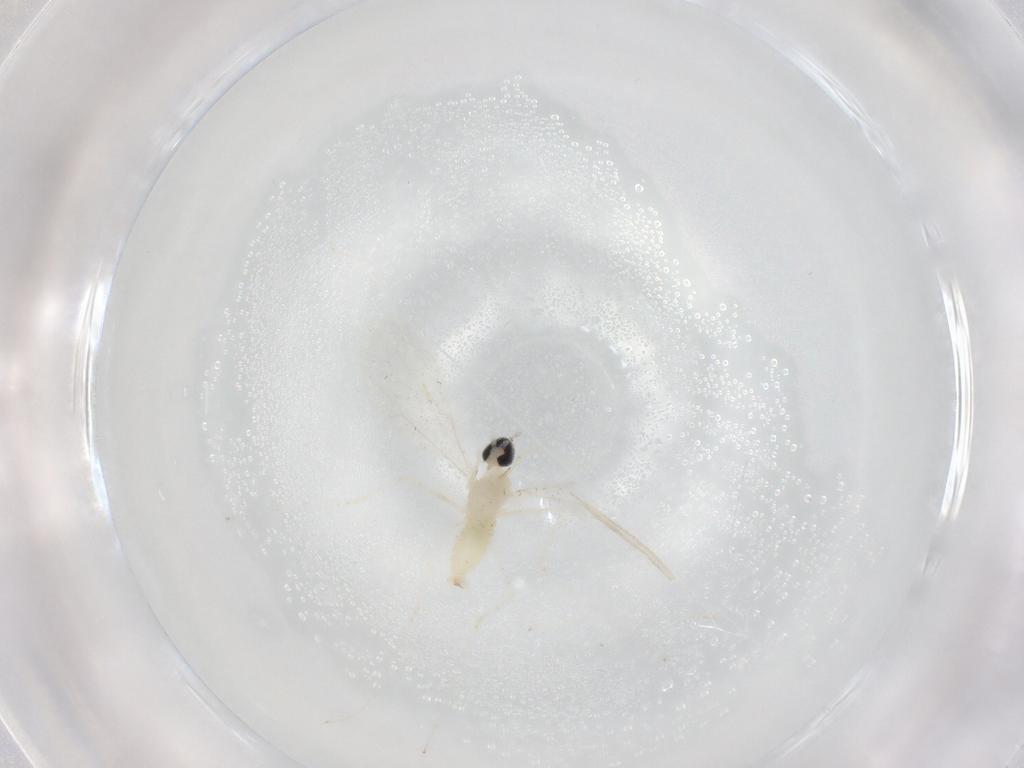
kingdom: Animalia
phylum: Arthropoda
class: Insecta
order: Diptera
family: Cecidomyiidae
